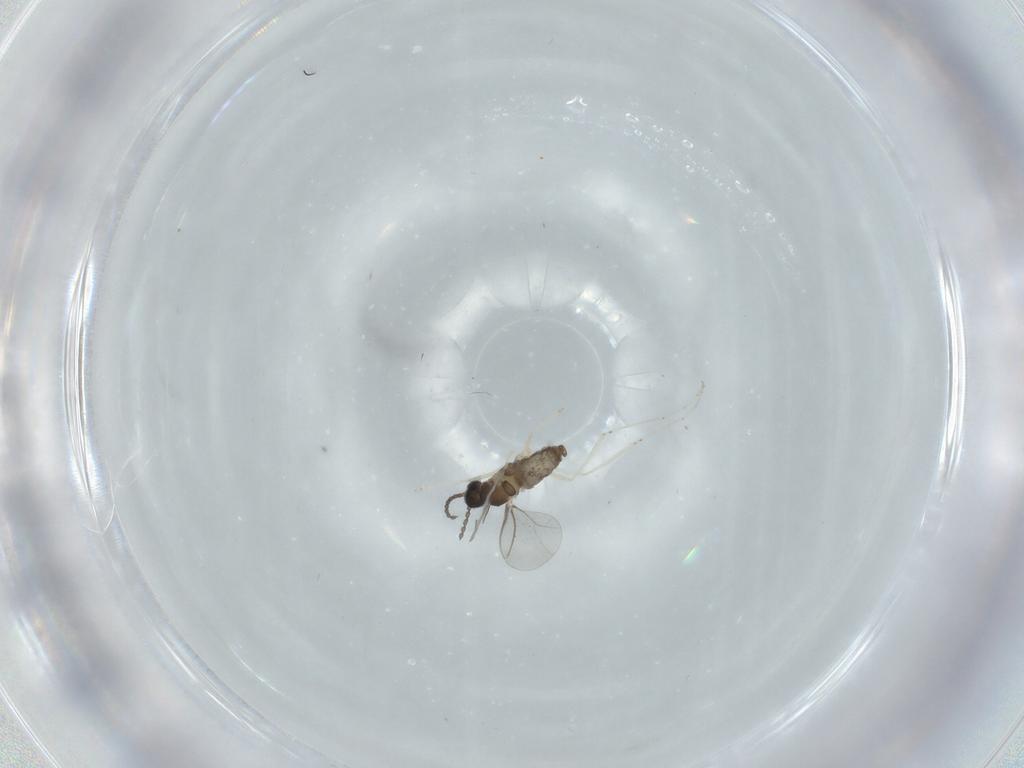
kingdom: Animalia
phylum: Arthropoda
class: Insecta
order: Diptera
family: Cecidomyiidae
